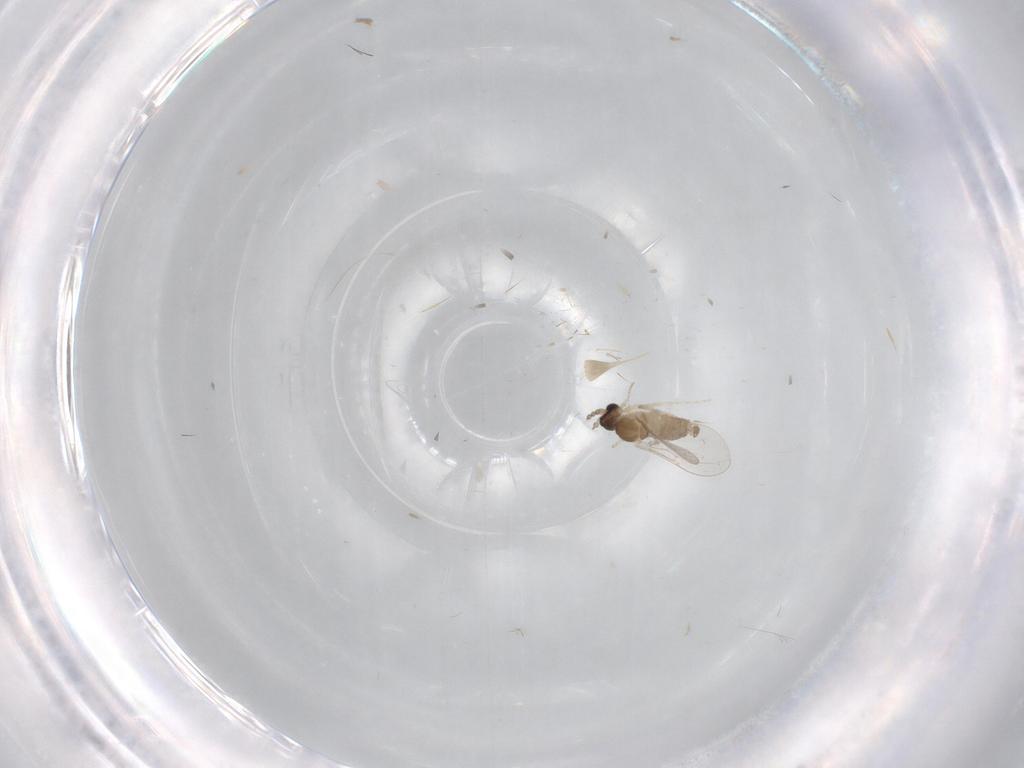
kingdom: Animalia
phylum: Arthropoda
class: Insecta
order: Diptera
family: Cecidomyiidae
